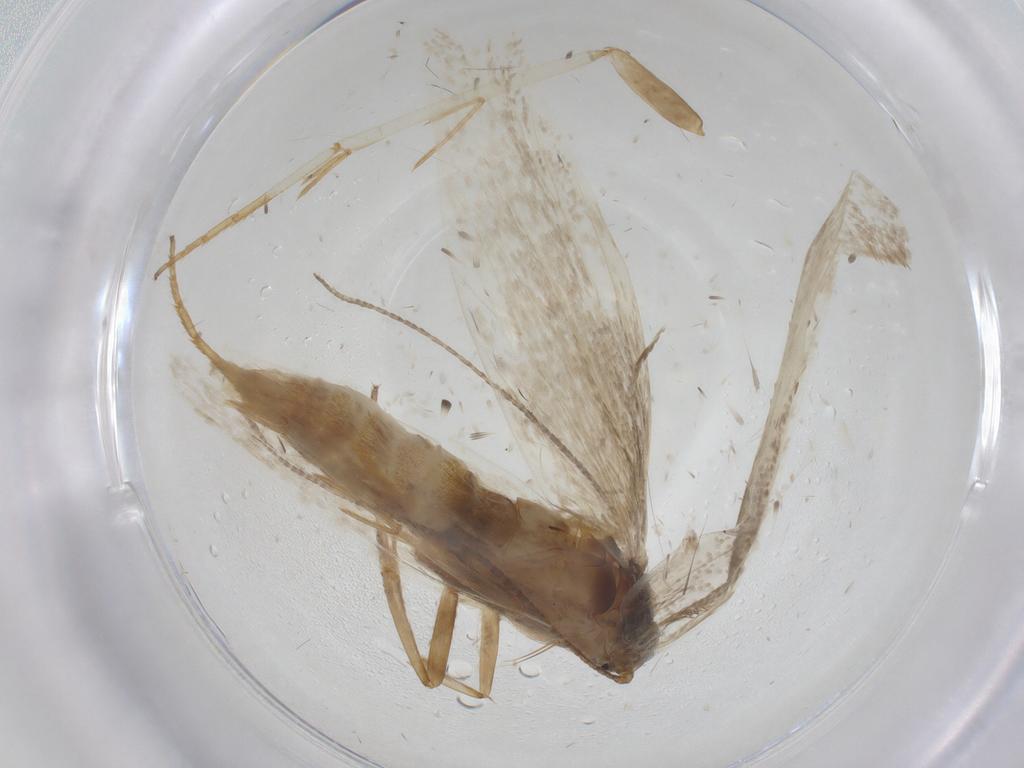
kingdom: Animalia
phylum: Arthropoda
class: Insecta
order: Lepidoptera
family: Erebidae
